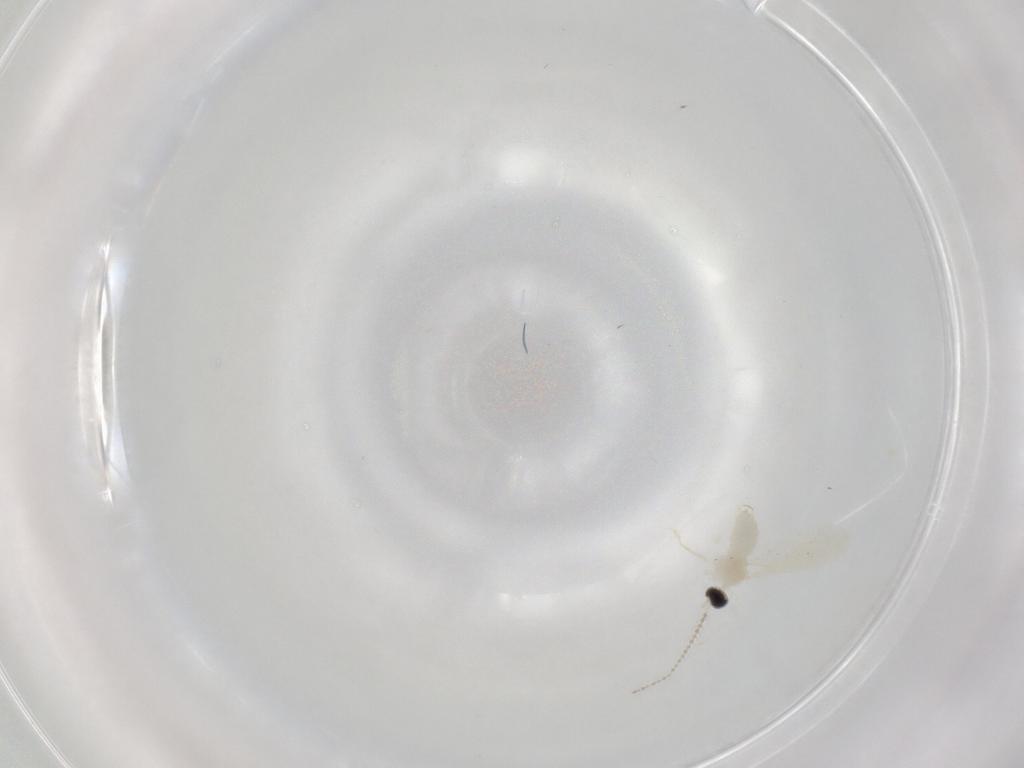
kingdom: Animalia
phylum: Arthropoda
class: Insecta
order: Diptera
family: Cecidomyiidae
